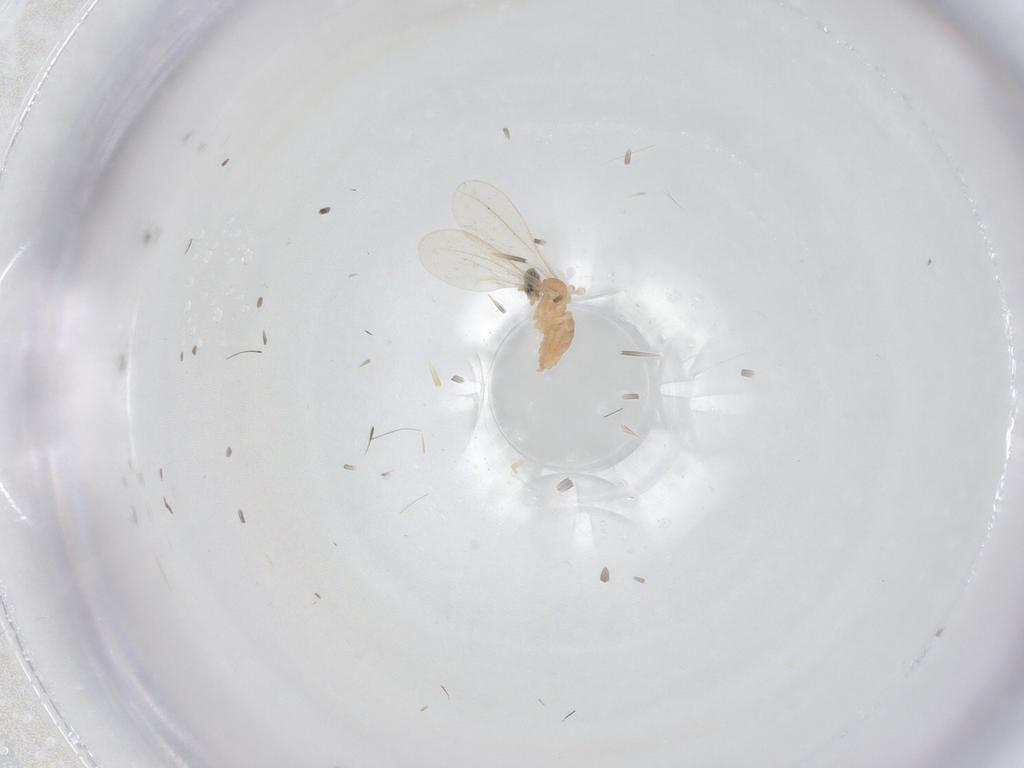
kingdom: Animalia
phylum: Arthropoda
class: Insecta
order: Diptera
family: Cecidomyiidae
